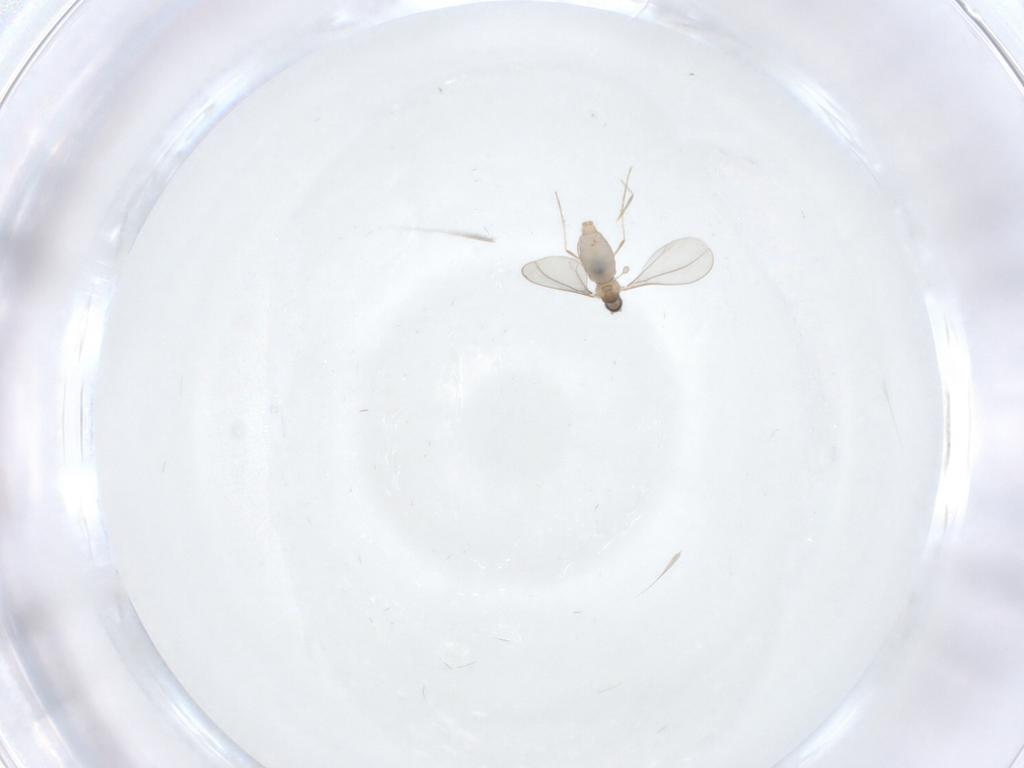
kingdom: Animalia
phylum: Arthropoda
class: Insecta
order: Diptera
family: Cecidomyiidae
